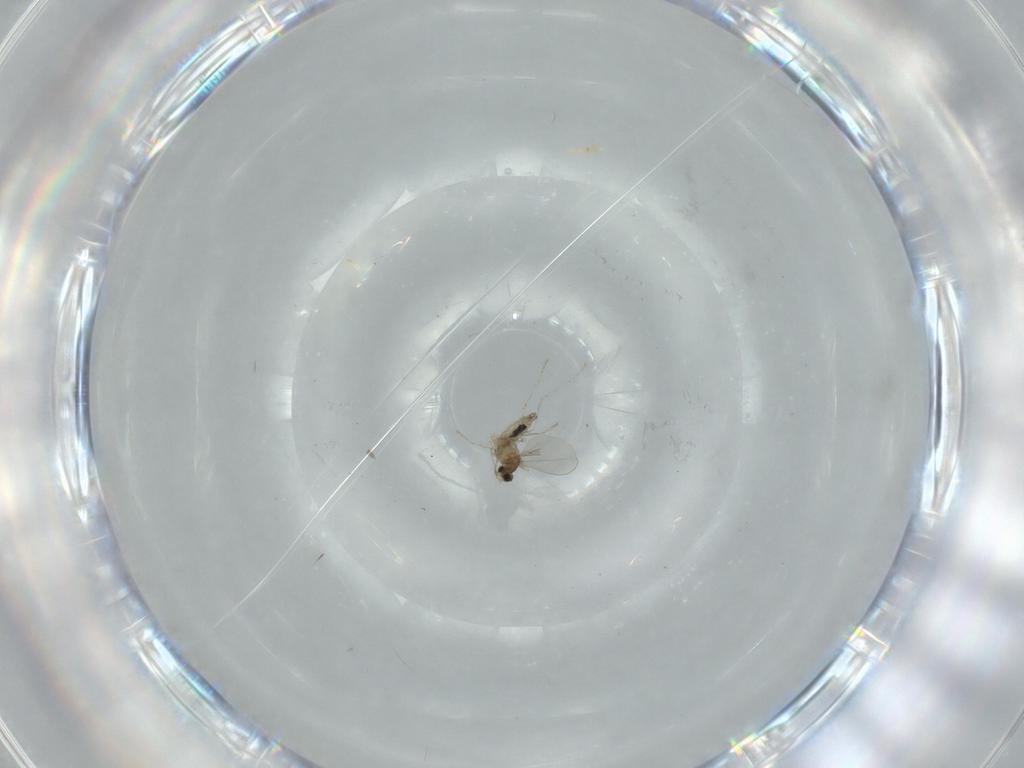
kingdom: Animalia
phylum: Arthropoda
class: Insecta
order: Diptera
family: Cecidomyiidae
